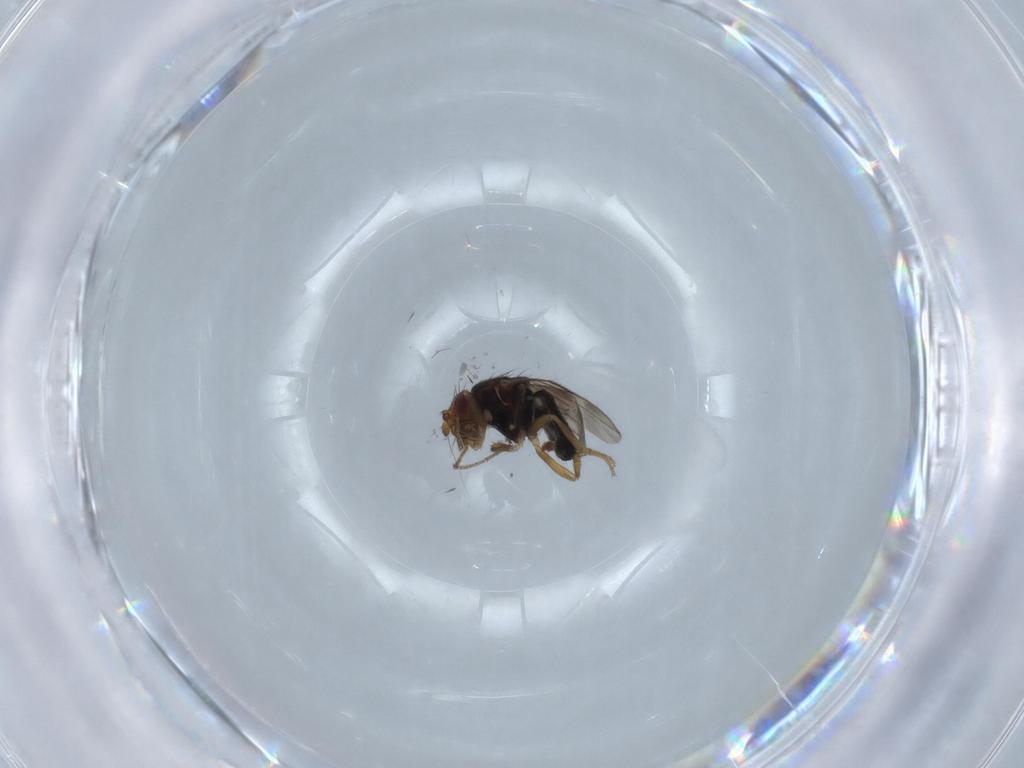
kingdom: Animalia
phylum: Arthropoda
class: Insecta
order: Diptera
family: Sphaeroceridae
